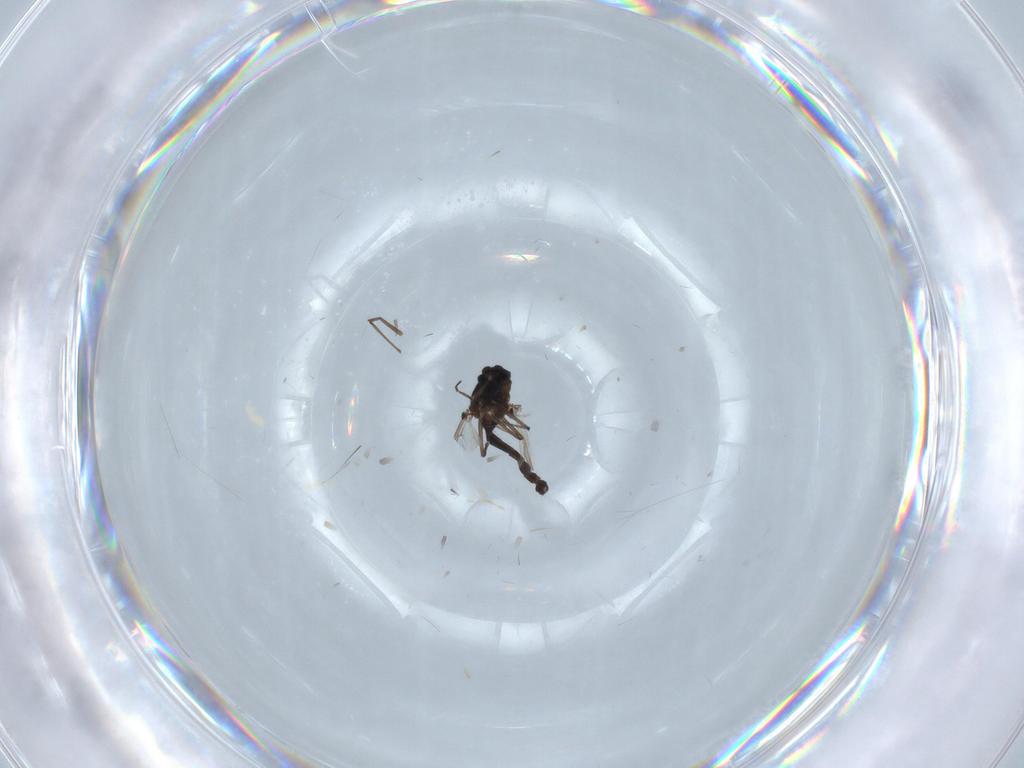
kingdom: Animalia
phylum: Arthropoda
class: Insecta
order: Diptera
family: Chironomidae
